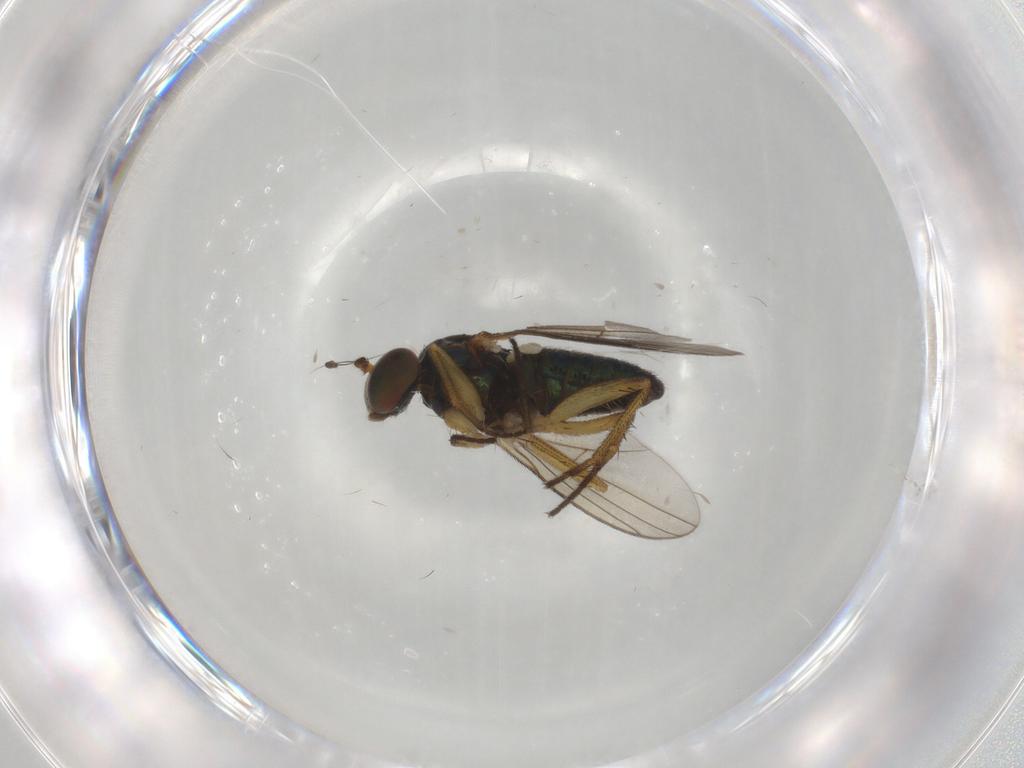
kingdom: Animalia
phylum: Arthropoda
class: Insecta
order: Diptera
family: Dolichopodidae
